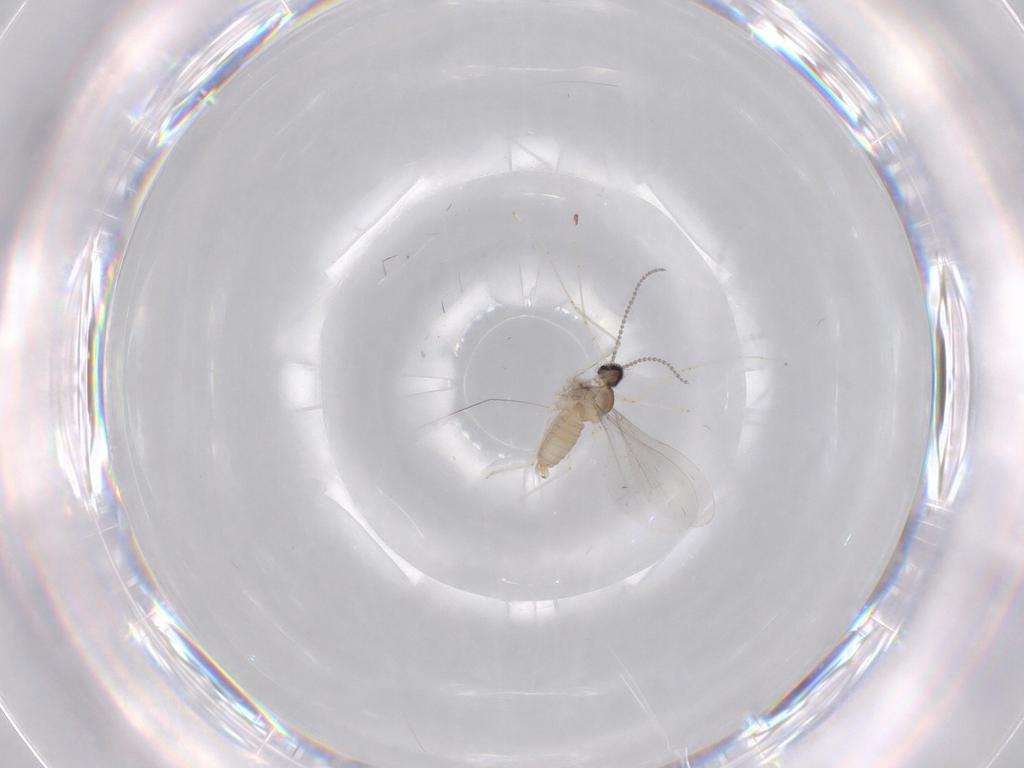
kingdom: Animalia
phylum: Arthropoda
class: Insecta
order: Diptera
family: Cecidomyiidae
